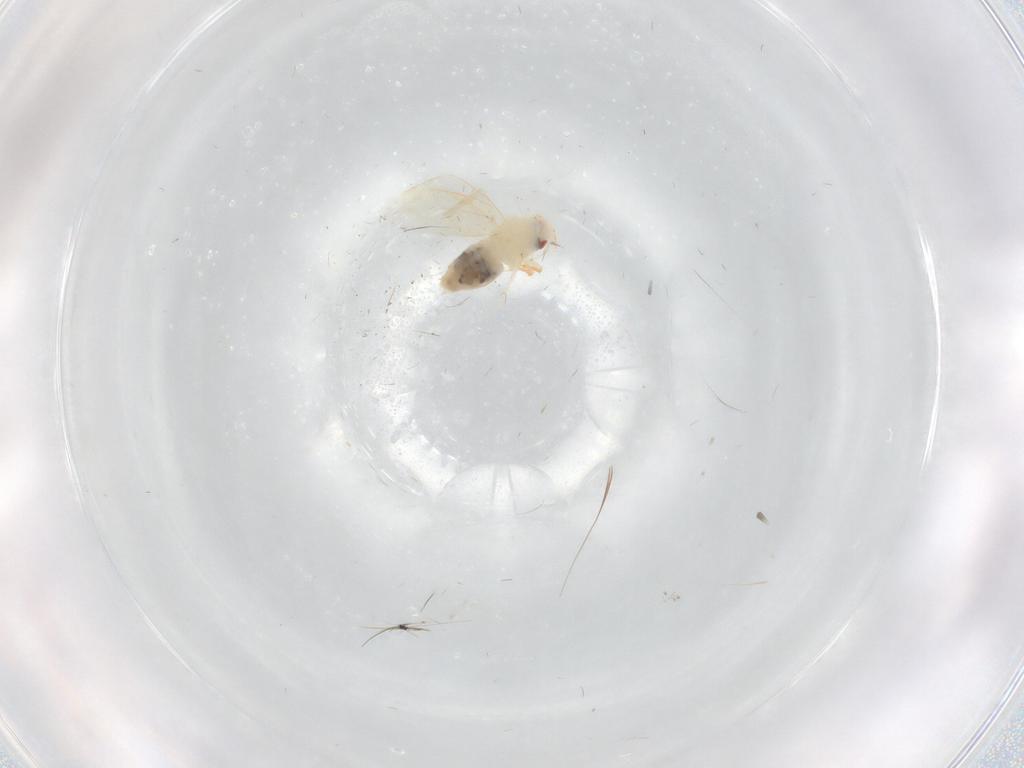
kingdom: Animalia
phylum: Arthropoda
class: Insecta
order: Hemiptera
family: Cicadellidae
